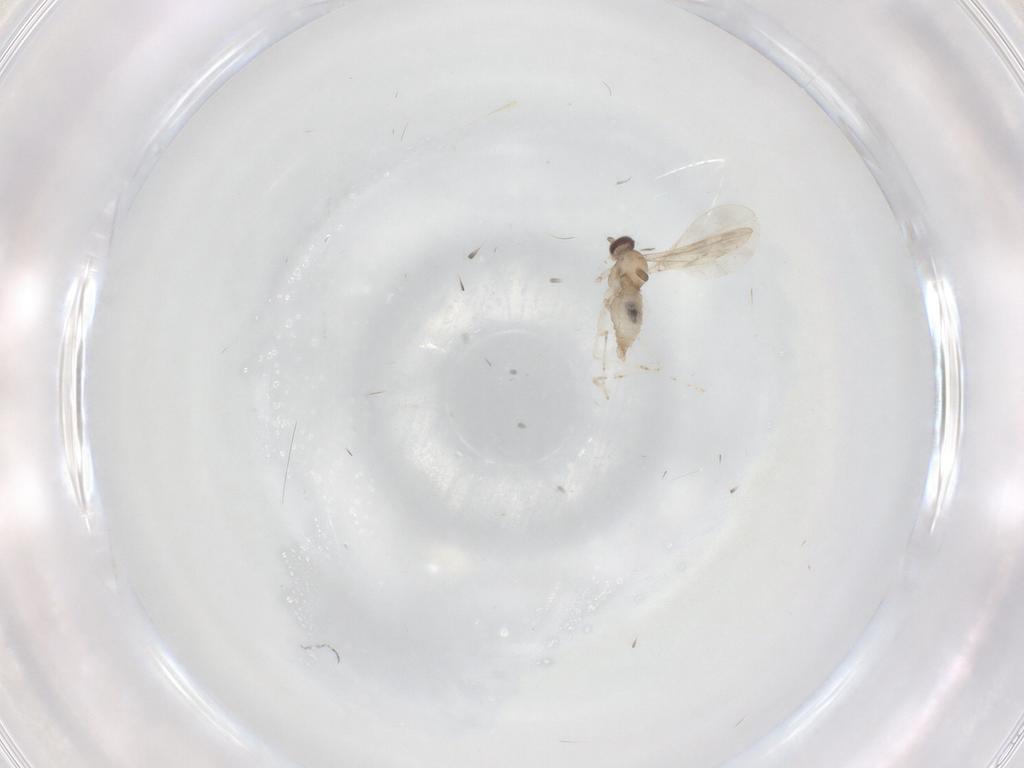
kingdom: Animalia
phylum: Arthropoda
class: Insecta
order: Diptera
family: Cecidomyiidae
